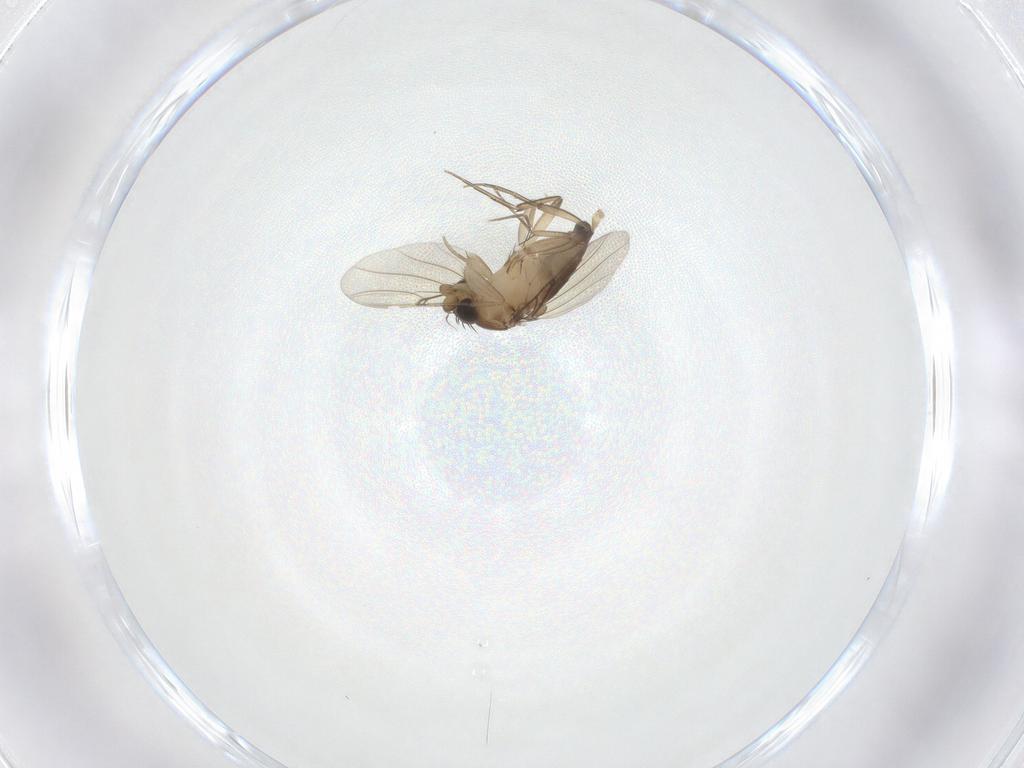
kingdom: Animalia
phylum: Arthropoda
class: Insecta
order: Diptera
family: Phoridae
